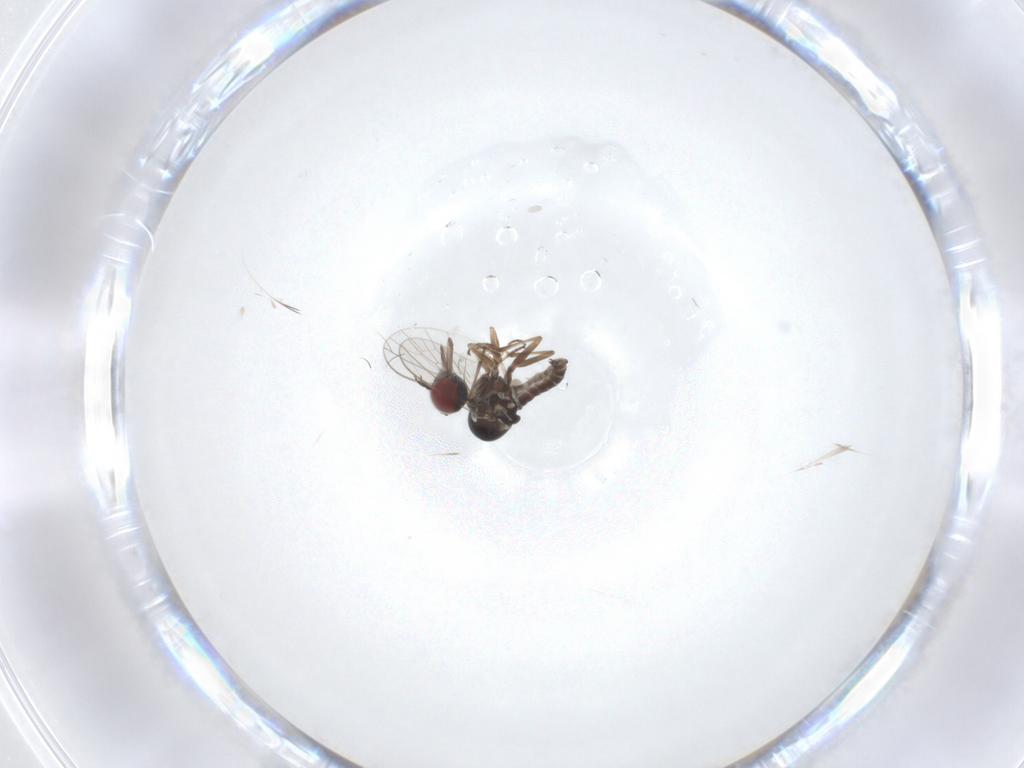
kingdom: Animalia
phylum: Arthropoda
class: Insecta
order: Diptera
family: Mythicomyiidae
